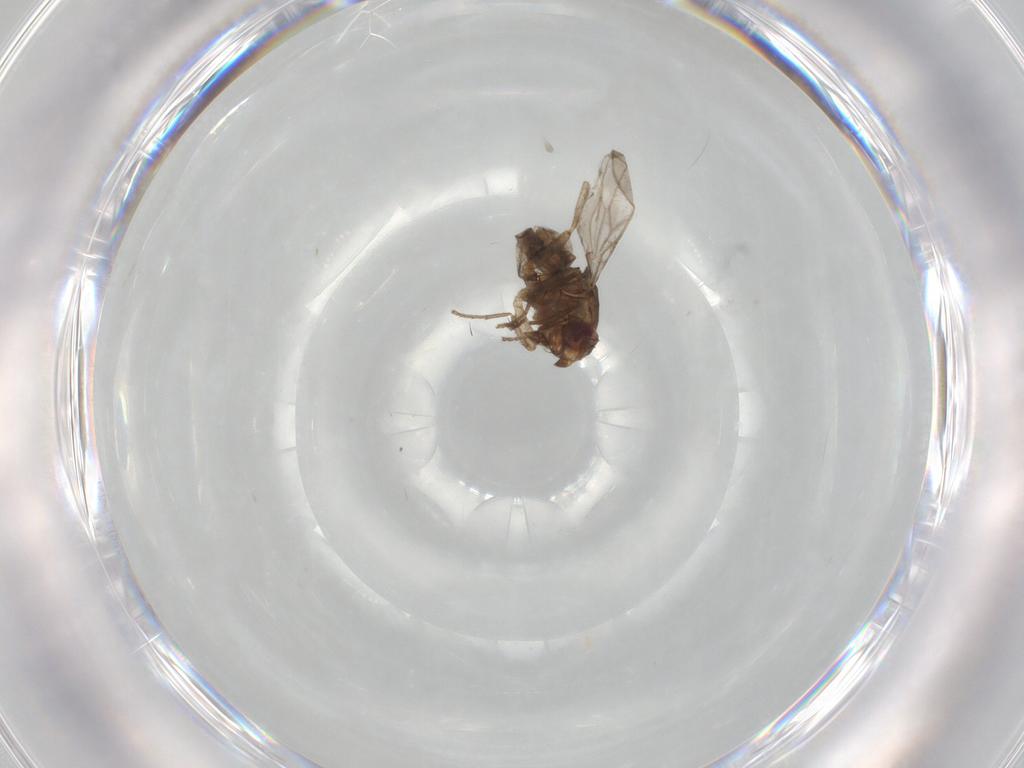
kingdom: Animalia
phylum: Arthropoda
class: Insecta
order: Diptera
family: Sphaeroceridae
